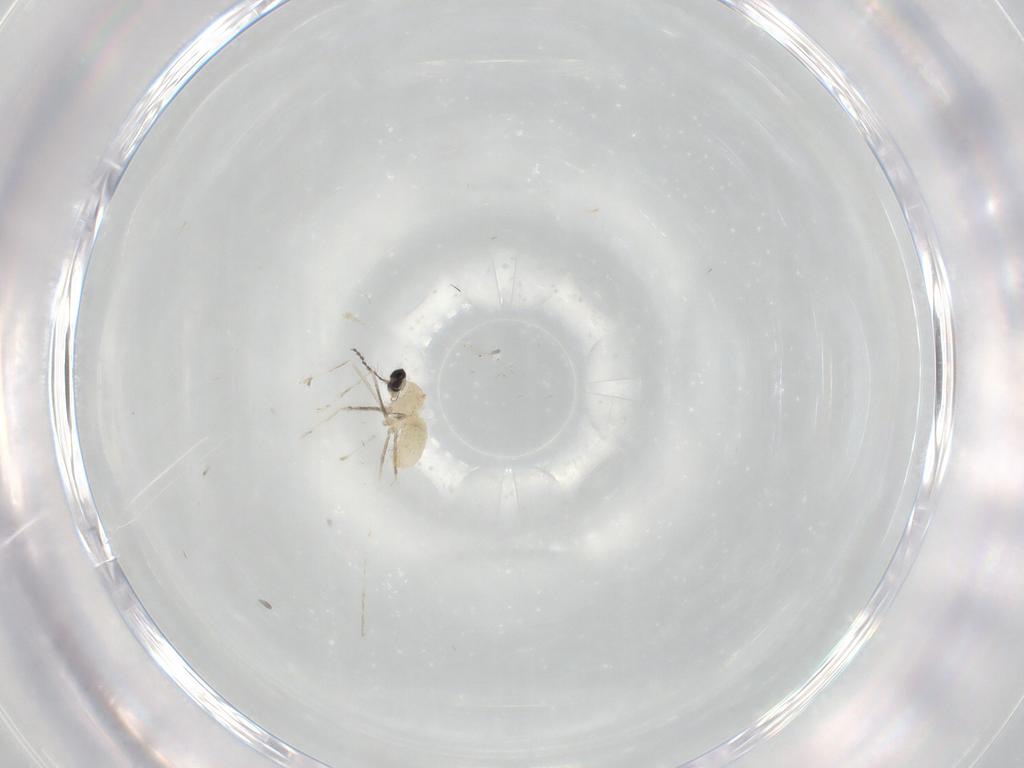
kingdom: Animalia
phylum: Arthropoda
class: Insecta
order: Diptera
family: Cecidomyiidae
